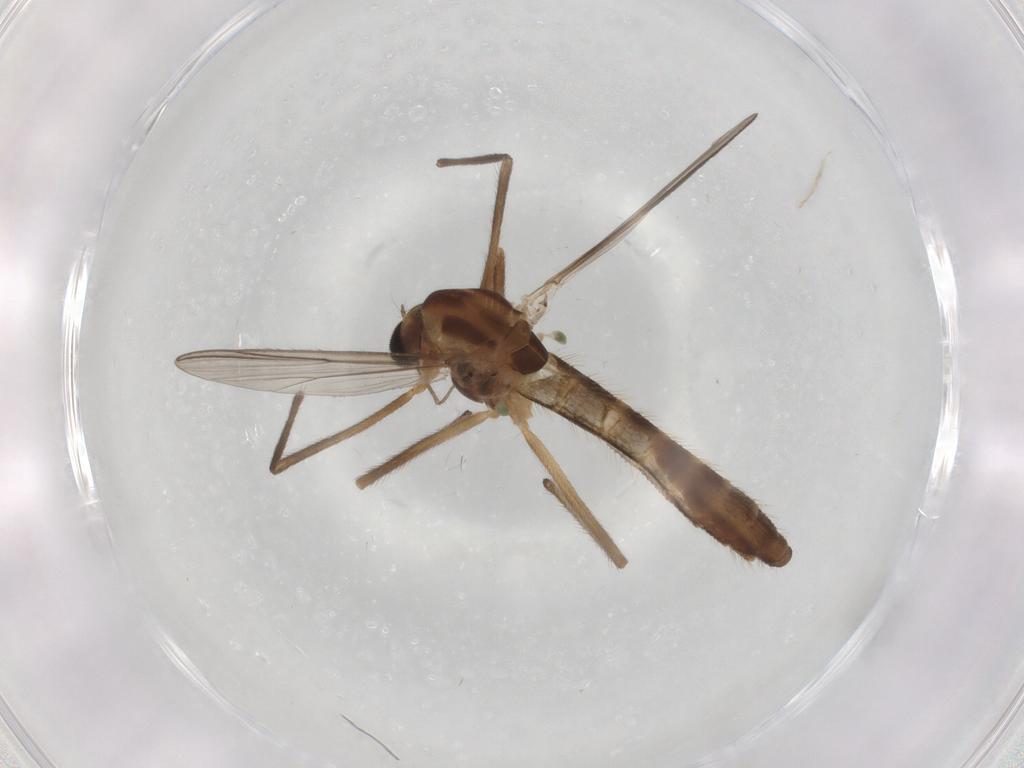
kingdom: Animalia
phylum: Arthropoda
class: Insecta
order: Diptera
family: Chironomidae
